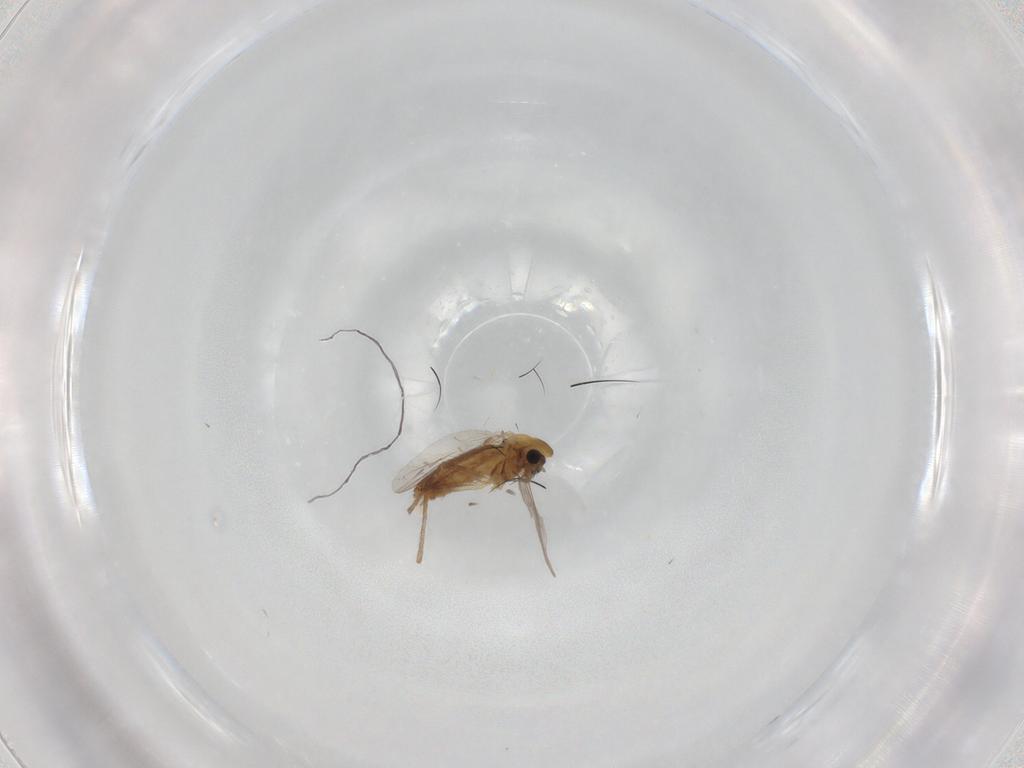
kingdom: Animalia
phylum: Arthropoda
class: Insecta
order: Diptera
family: Chironomidae
